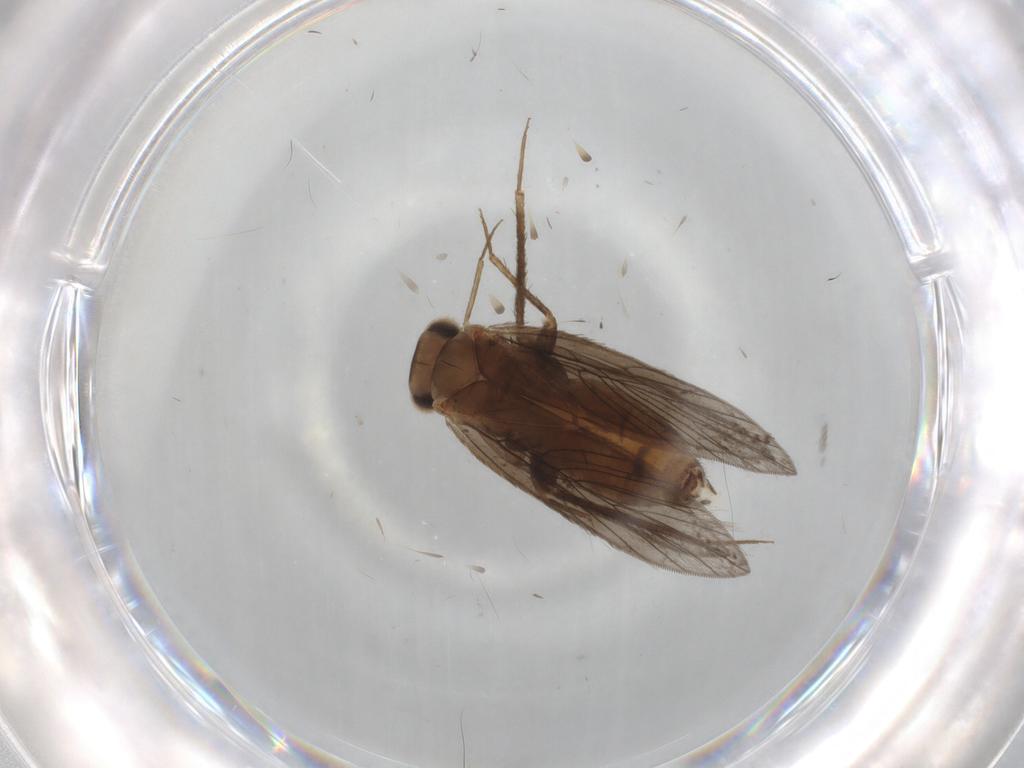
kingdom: Animalia
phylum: Arthropoda
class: Insecta
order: Psocodea
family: Lepidopsocidae
